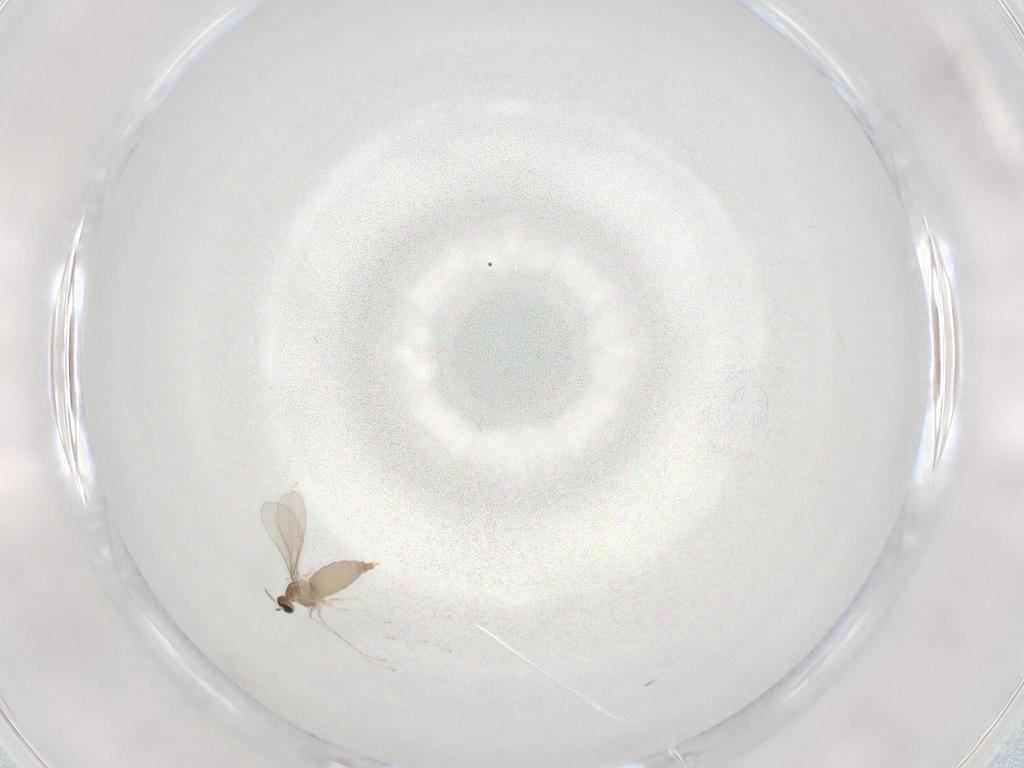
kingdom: Animalia
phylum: Arthropoda
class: Insecta
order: Diptera
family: Cecidomyiidae
